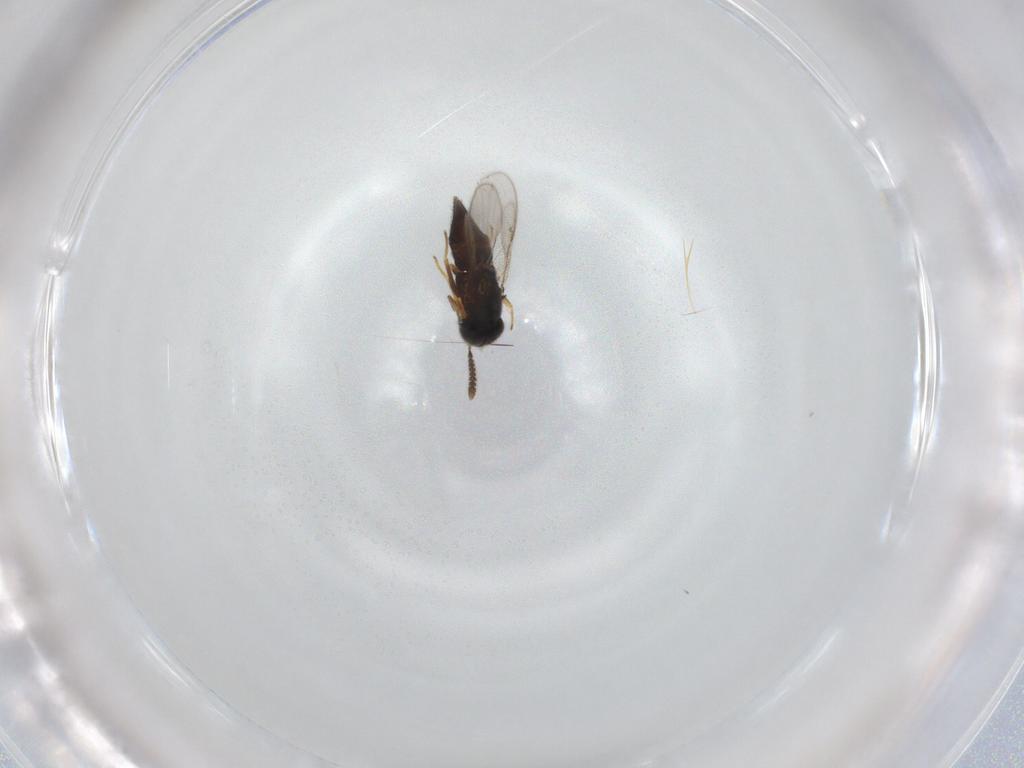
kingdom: Animalia
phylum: Arthropoda
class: Insecta
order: Hymenoptera
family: Encyrtidae
